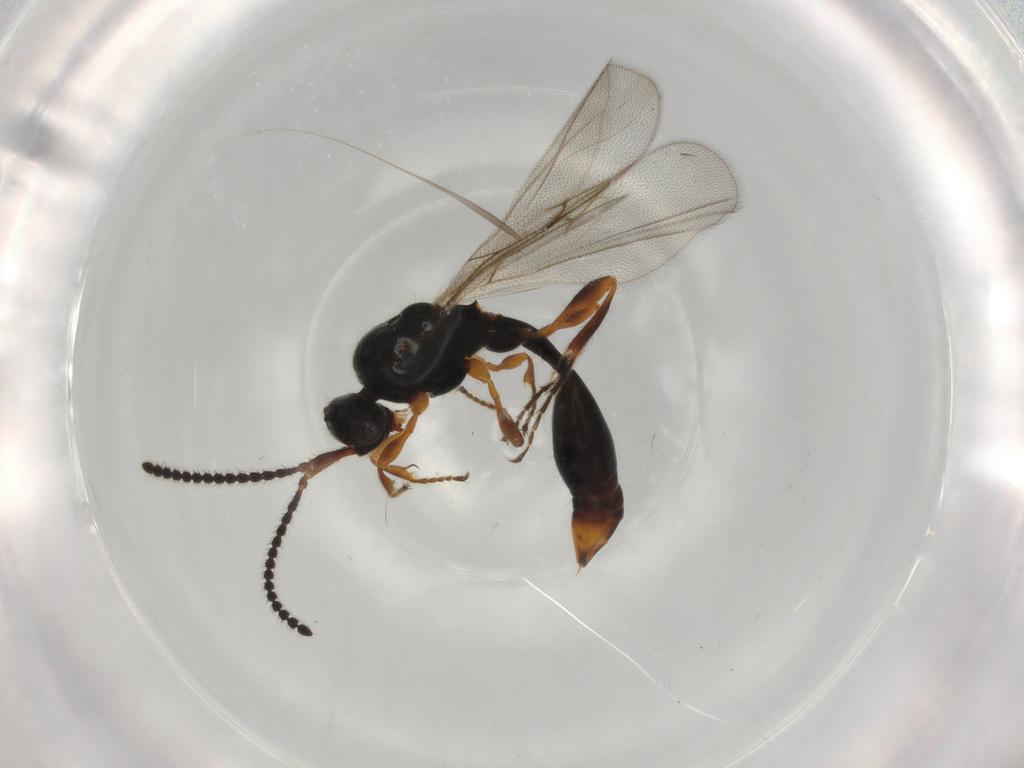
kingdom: Animalia
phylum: Arthropoda
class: Insecta
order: Hymenoptera
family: Diapriidae
